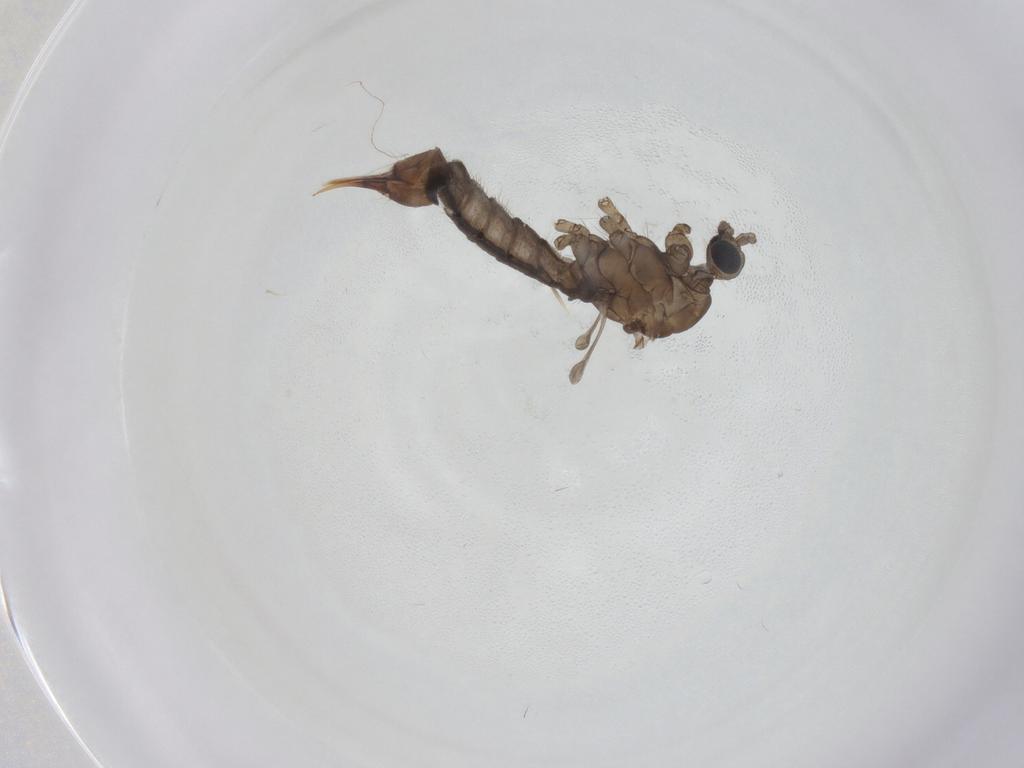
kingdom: Animalia
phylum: Arthropoda
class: Insecta
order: Diptera
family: Limoniidae
